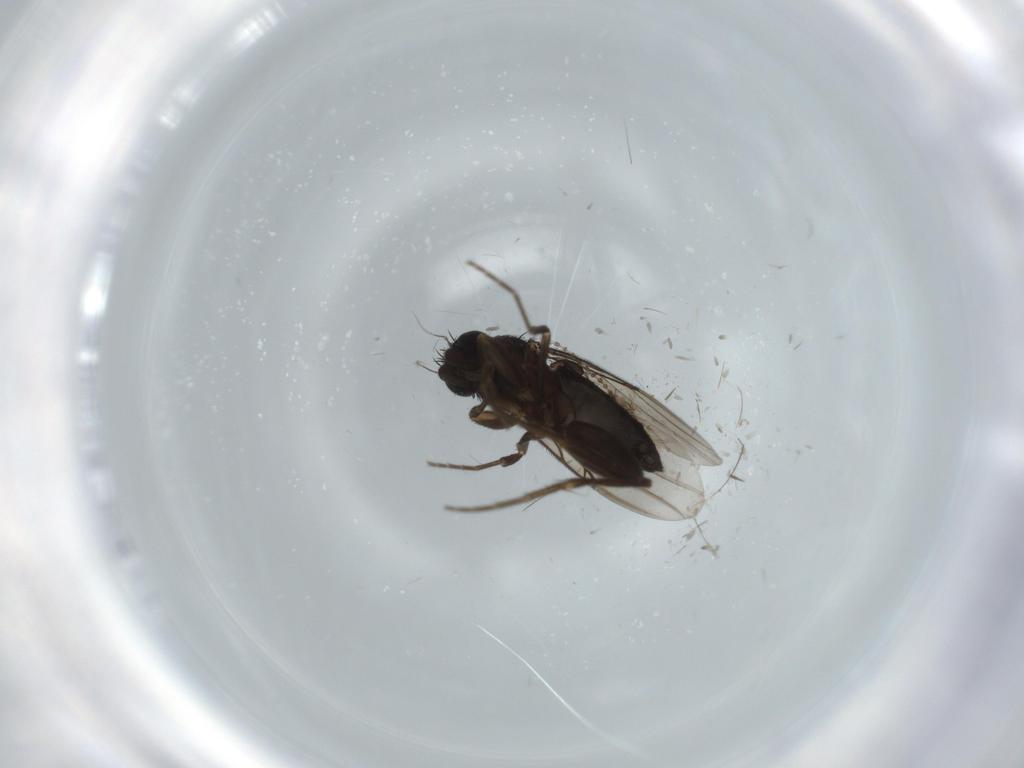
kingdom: Animalia
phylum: Arthropoda
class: Insecta
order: Diptera
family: Cecidomyiidae
